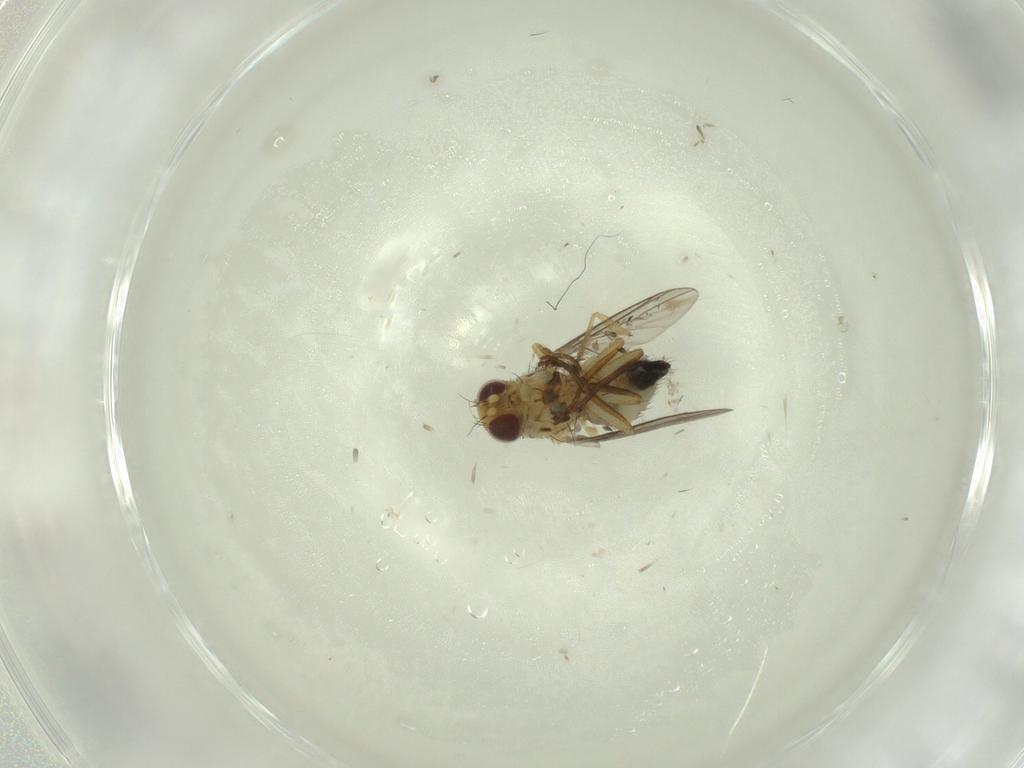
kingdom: Animalia
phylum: Arthropoda
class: Insecta
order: Diptera
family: Agromyzidae
